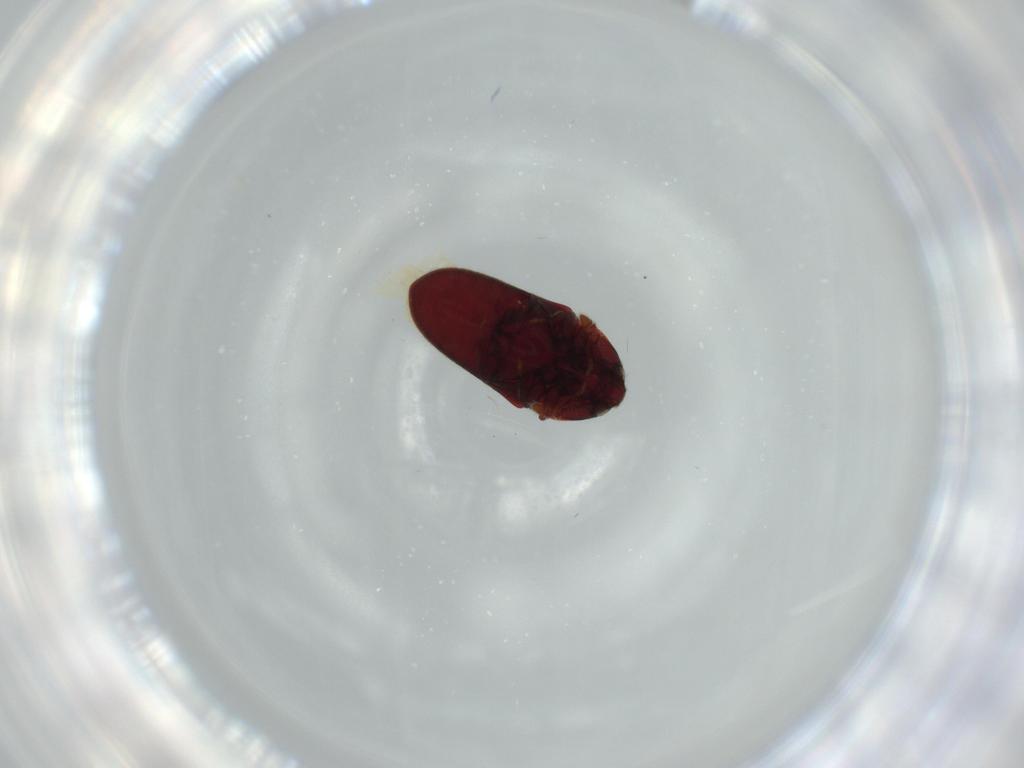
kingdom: Animalia
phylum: Arthropoda
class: Insecta
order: Coleoptera
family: Throscidae
